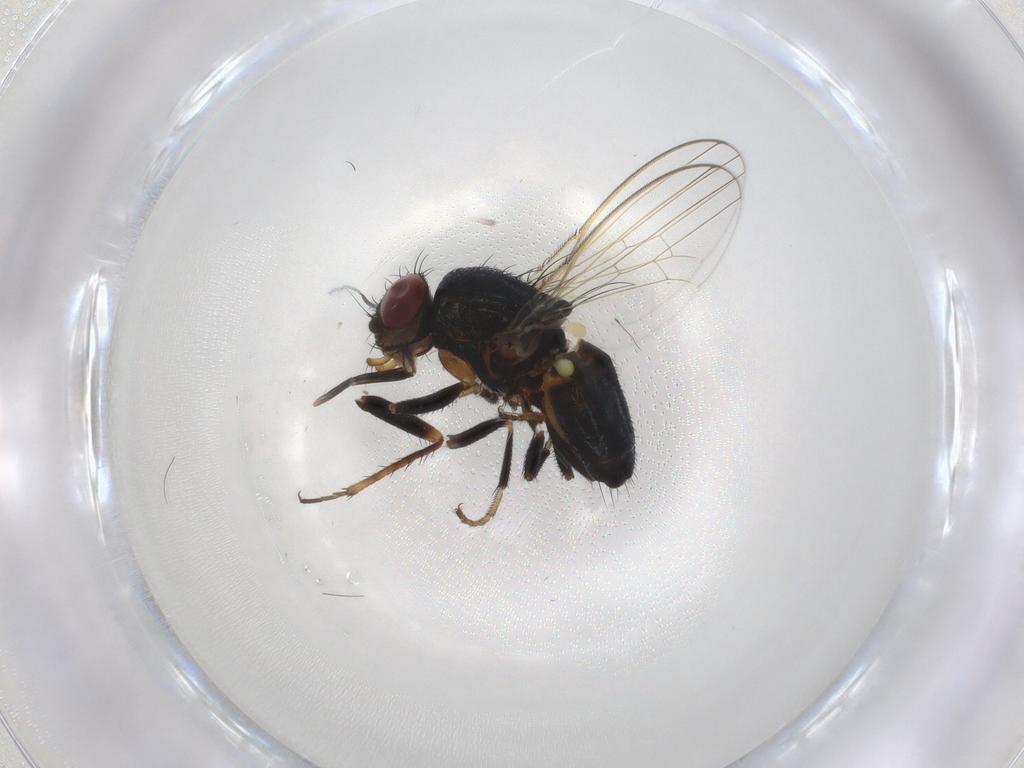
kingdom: Animalia
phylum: Arthropoda
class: Insecta
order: Diptera
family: Milichiidae
